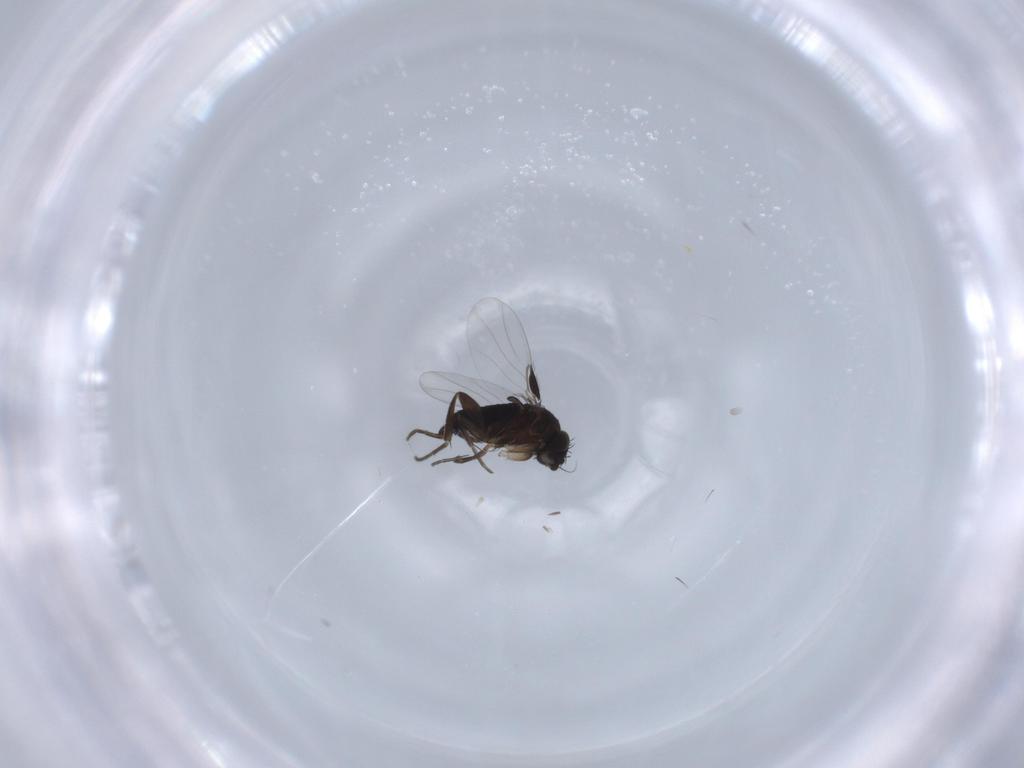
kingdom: Animalia
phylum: Arthropoda
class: Insecta
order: Diptera
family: Phoridae
